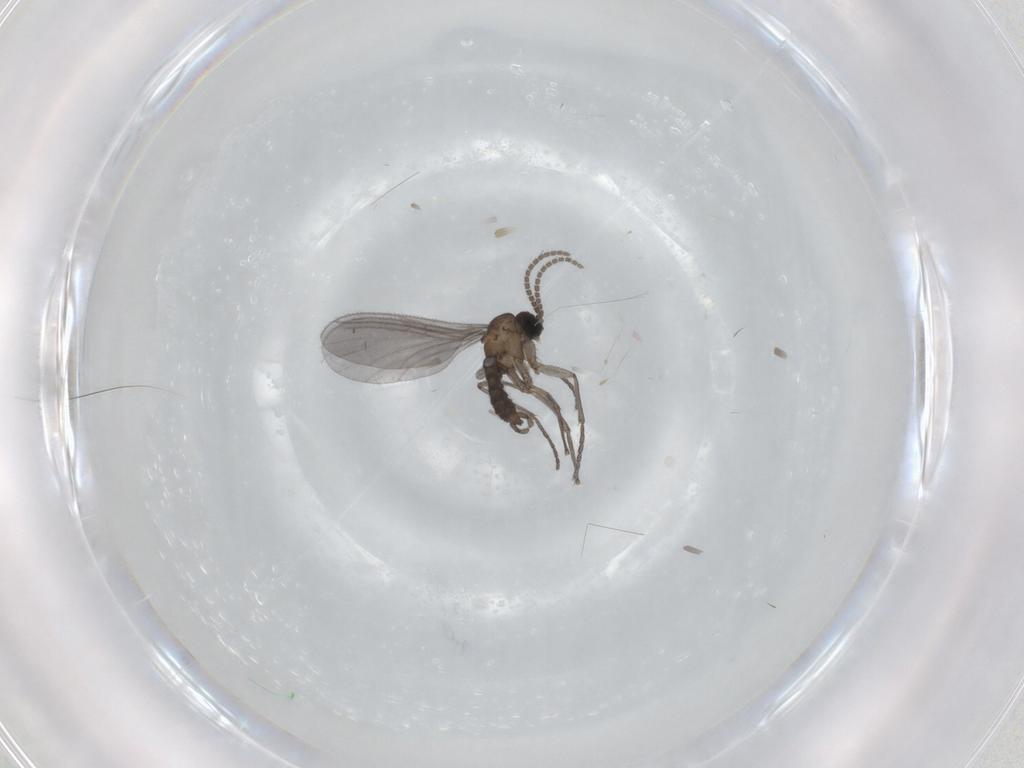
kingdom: Animalia
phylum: Arthropoda
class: Insecta
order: Diptera
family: Sciaridae
